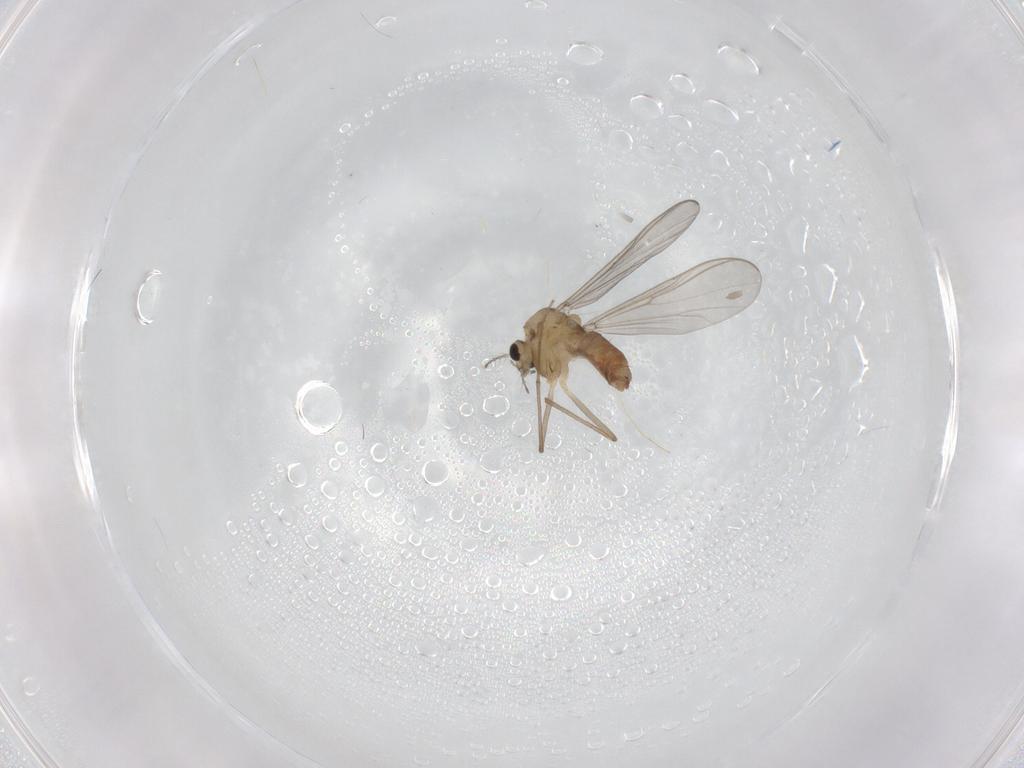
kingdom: Animalia
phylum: Arthropoda
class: Insecta
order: Diptera
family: Chironomidae
